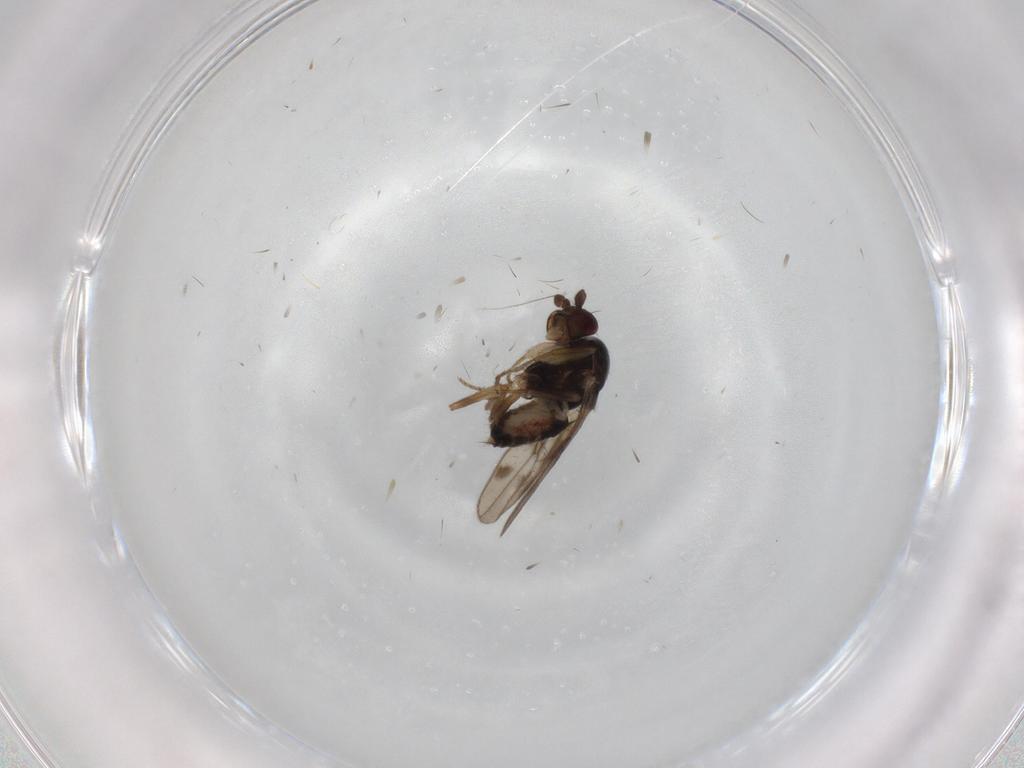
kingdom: Animalia
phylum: Arthropoda
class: Insecta
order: Diptera
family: Sphaeroceridae
